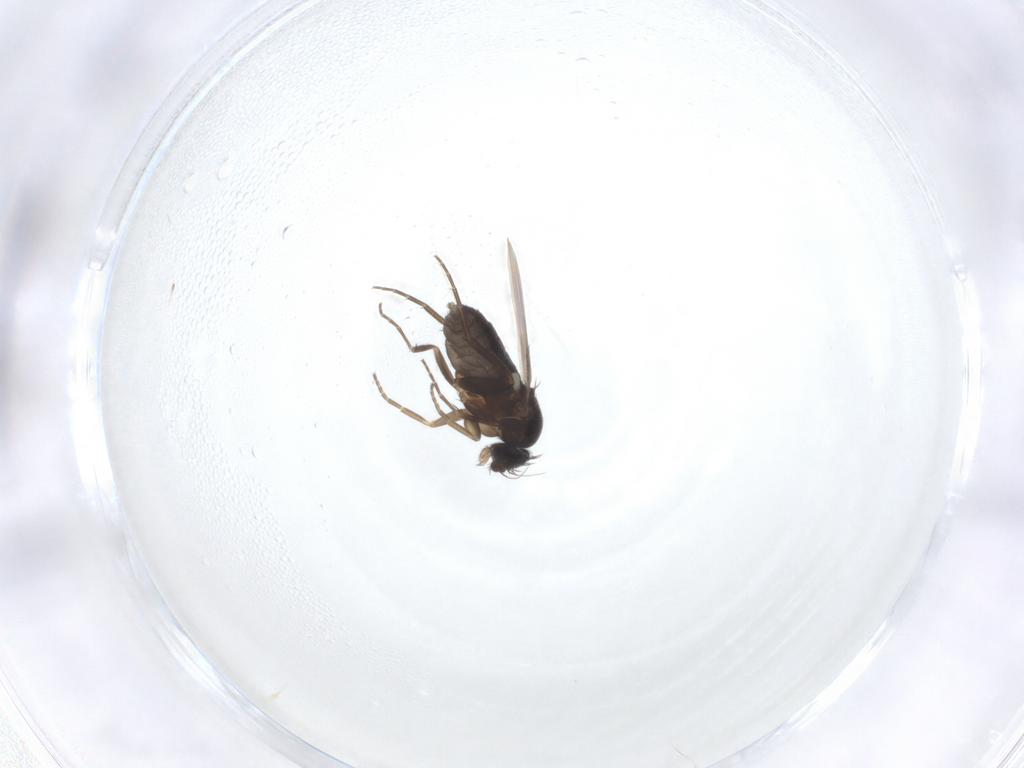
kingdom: Animalia
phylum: Arthropoda
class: Insecta
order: Diptera
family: Phoridae
